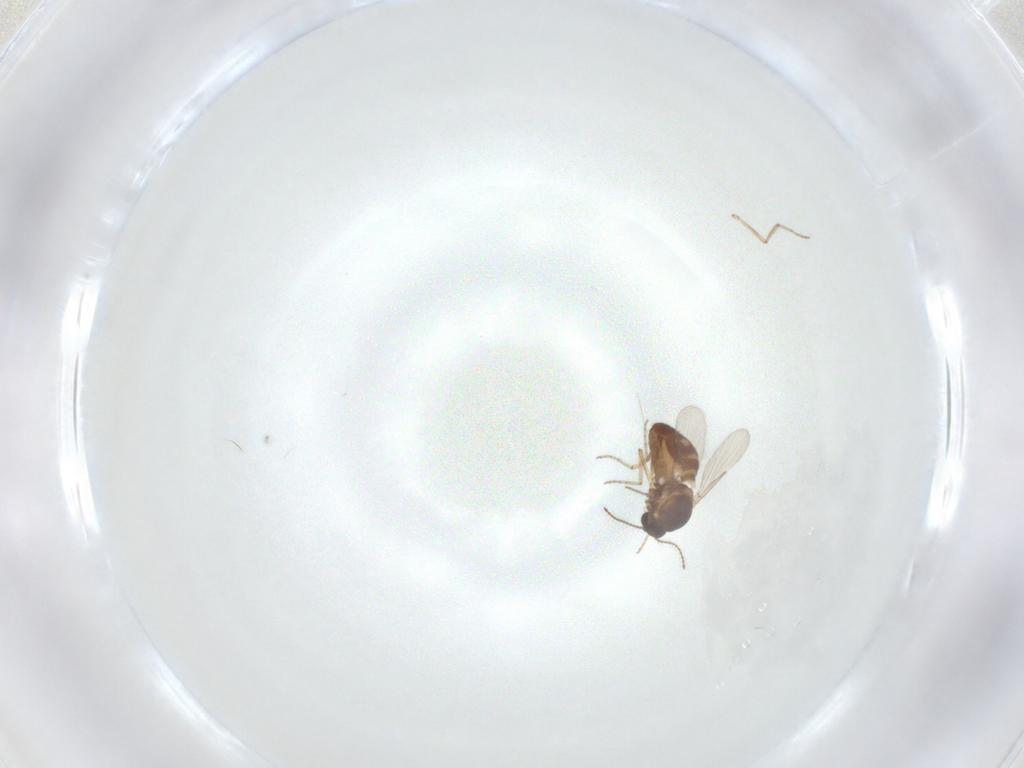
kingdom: Animalia
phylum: Arthropoda
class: Insecta
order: Diptera
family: Ceratopogonidae
